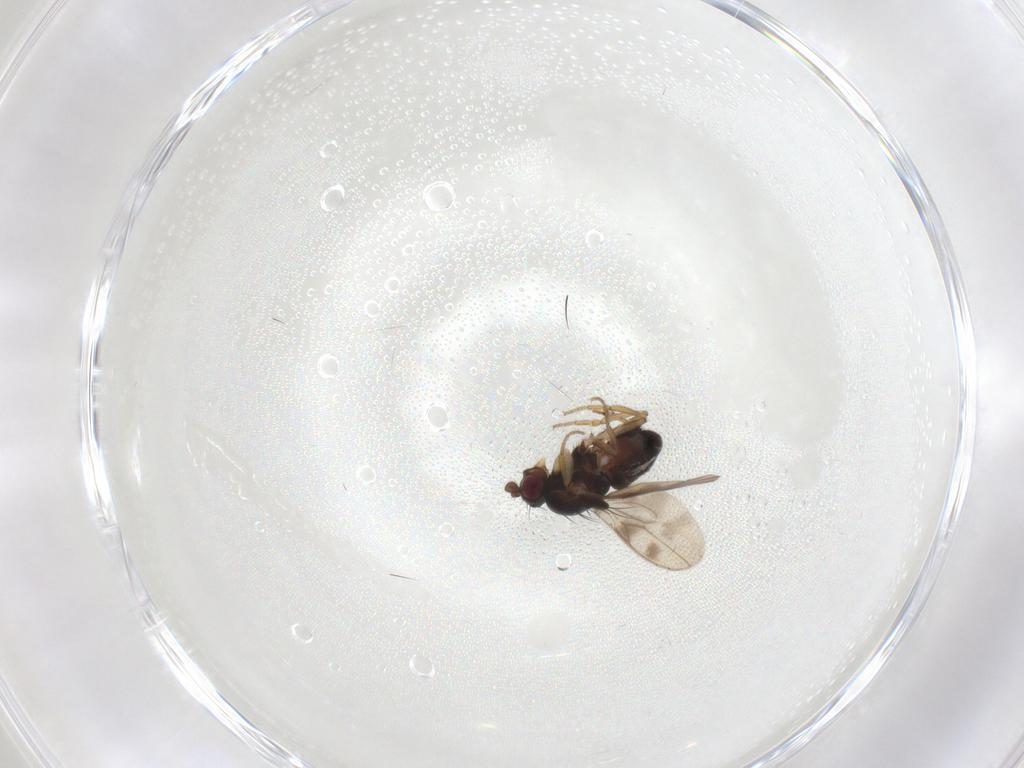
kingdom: Animalia
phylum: Arthropoda
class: Insecta
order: Diptera
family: Sphaeroceridae
